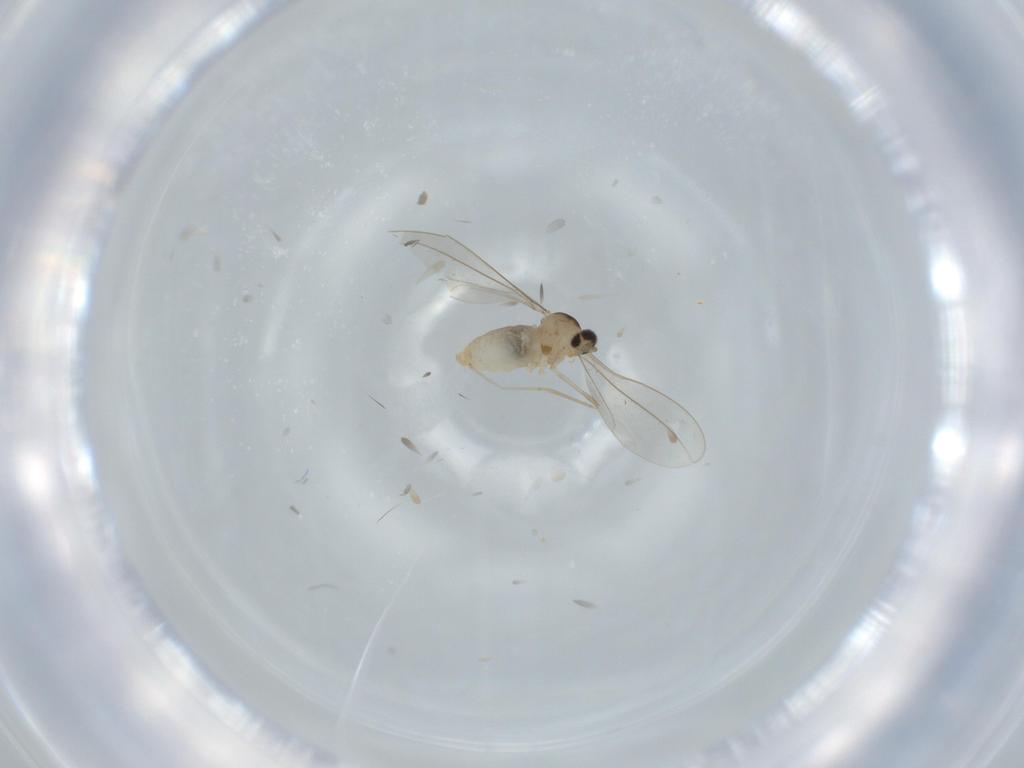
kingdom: Animalia
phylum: Arthropoda
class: Insecta
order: Diptera
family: Cecidomyiidae
